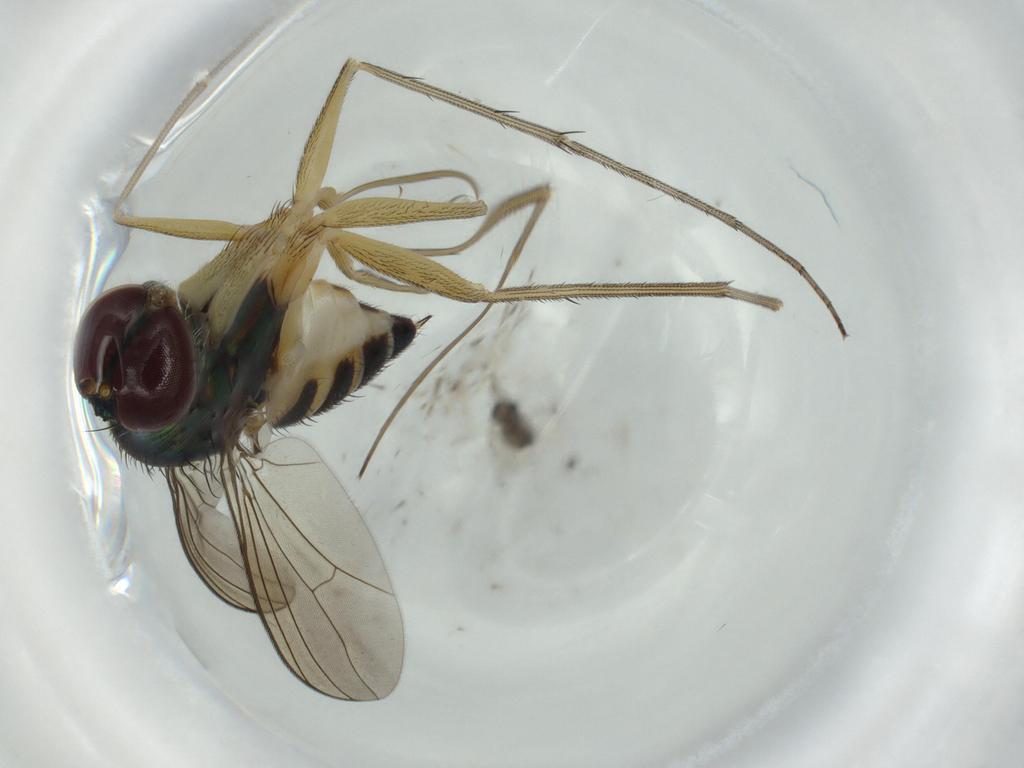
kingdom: Animalia
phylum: Arthropoda
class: Insecta
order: Diptera
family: Dolichopodidae
